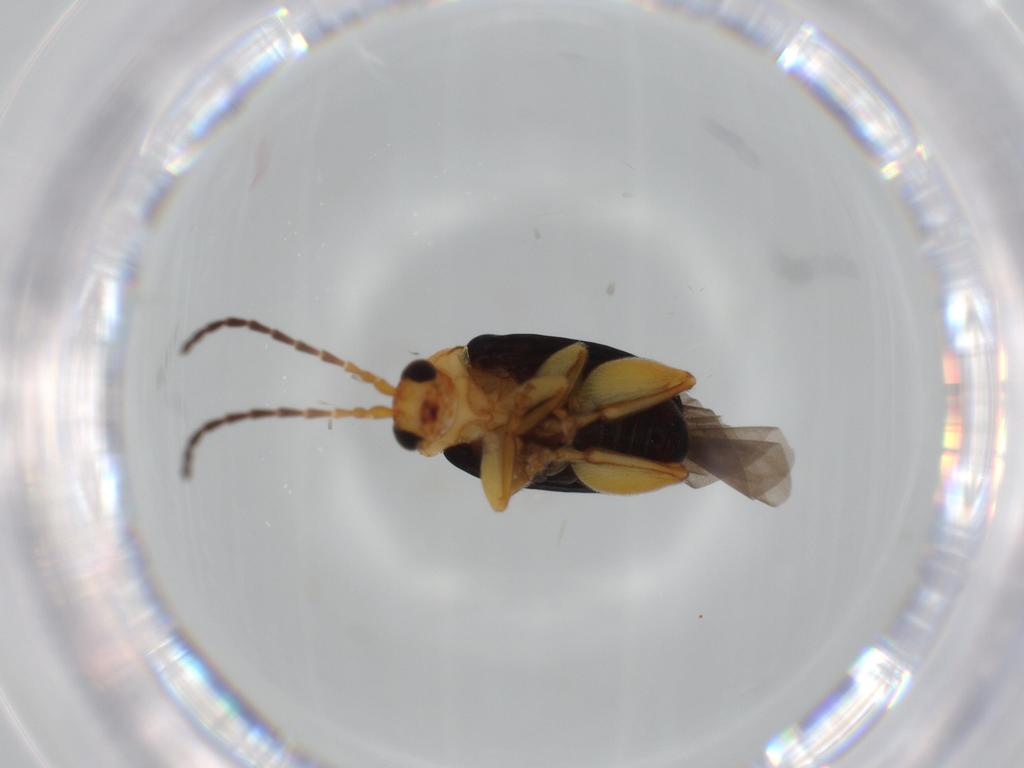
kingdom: Animalia
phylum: Arthropoda
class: Insecta
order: Coleoptera
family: Chrysomelidae
